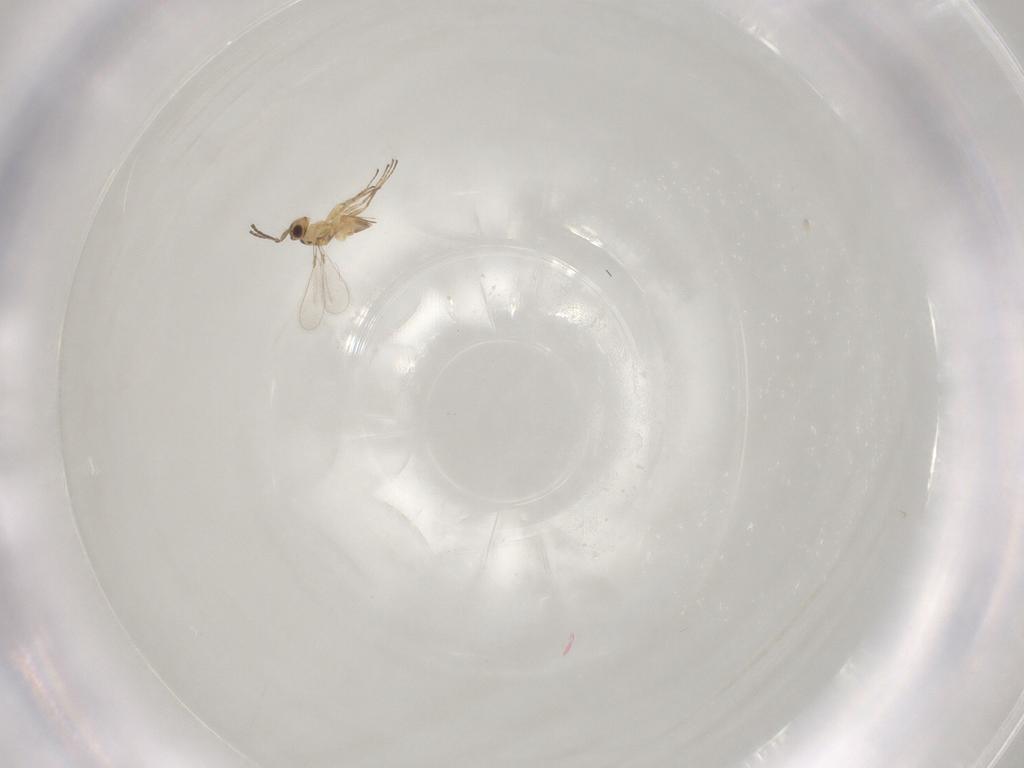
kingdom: Animalia
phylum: Arthropoda
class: Insecta
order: Hymenoptera
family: Mymaridae
